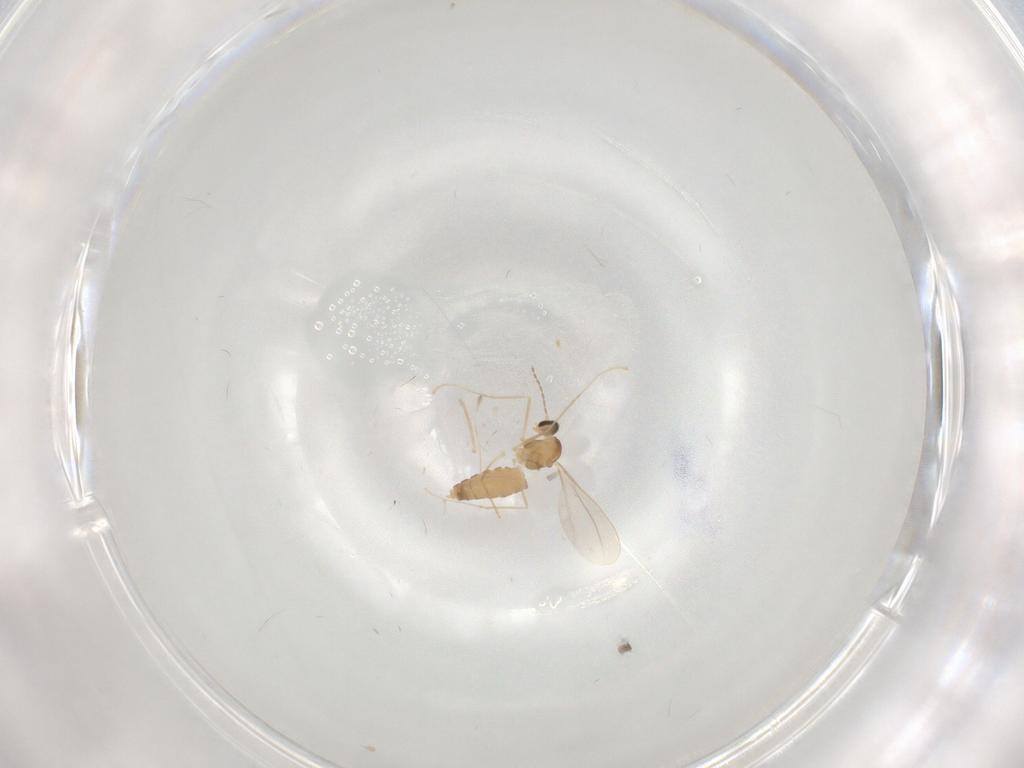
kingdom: Animalia
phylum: Arthropoda
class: Insecta
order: Diptera
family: Cecidomyiidae
